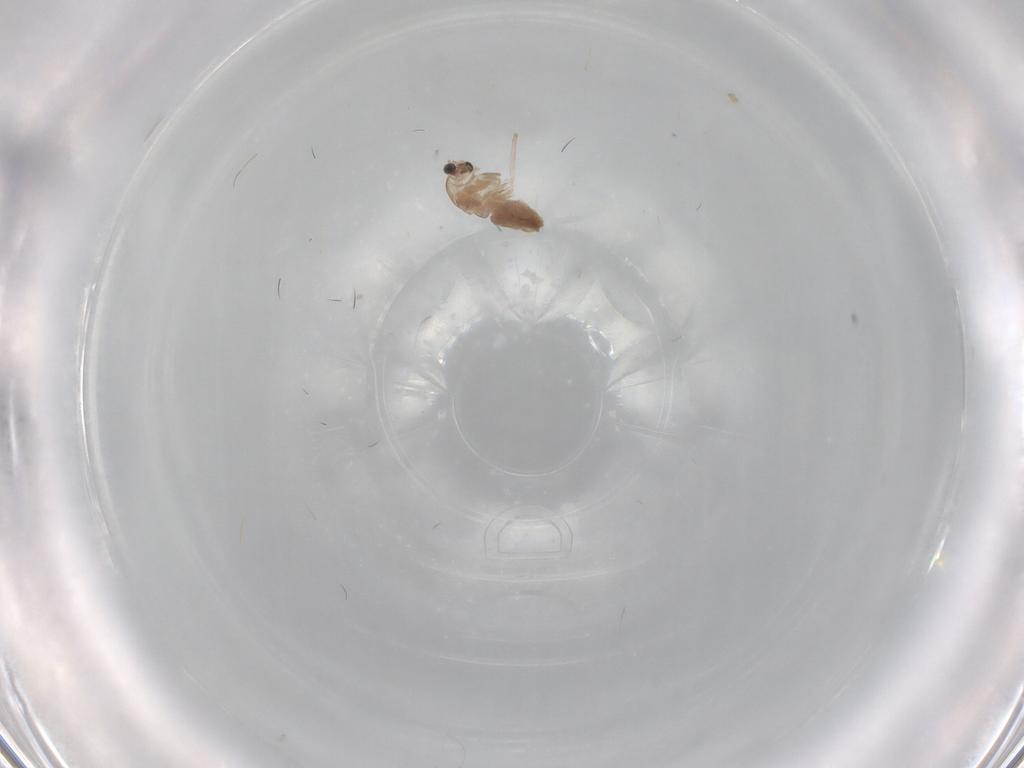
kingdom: Animalia
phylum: Arthropoda
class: Insecta
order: Diptera
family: Chironomidae
